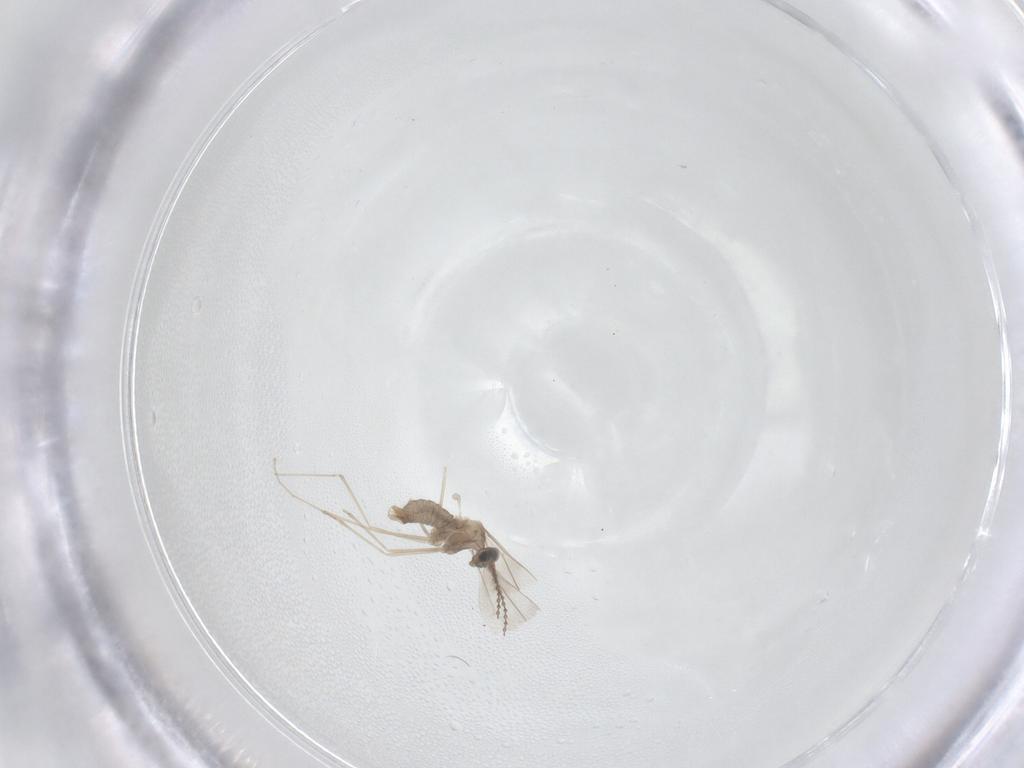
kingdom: Animalia
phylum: Arthropoda
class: Insecta
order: Diptera
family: Cecidomyiidae
